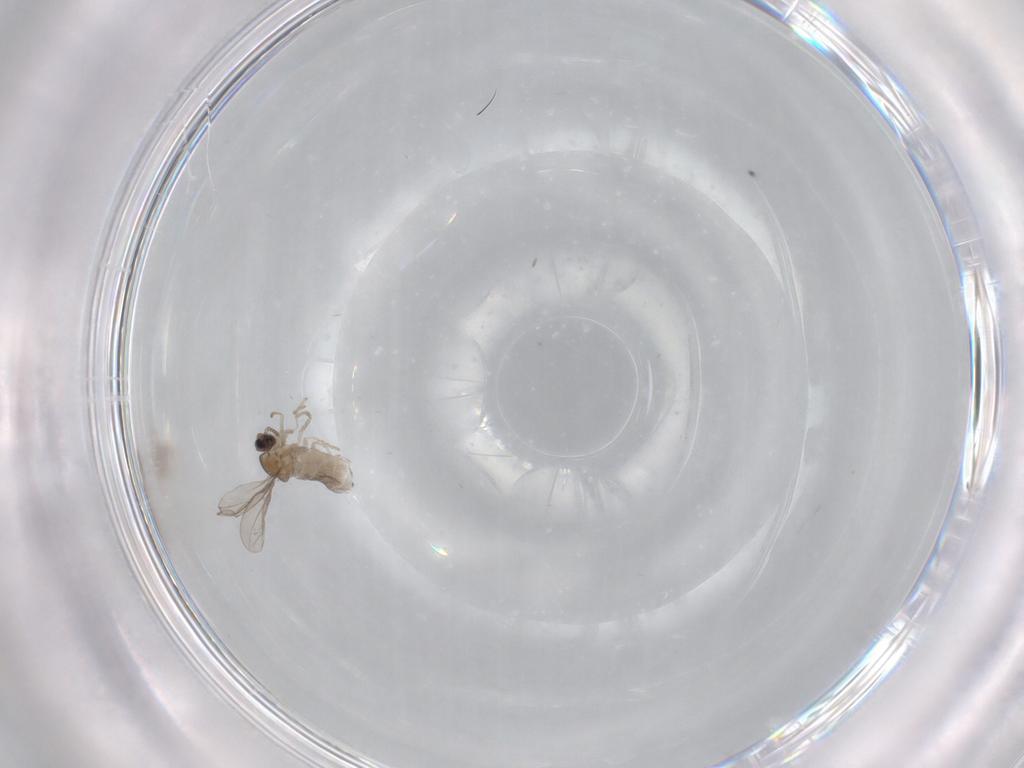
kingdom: Animalia
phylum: Arthropoda
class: Insecta
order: Diptera
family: Cecidomyiidae
